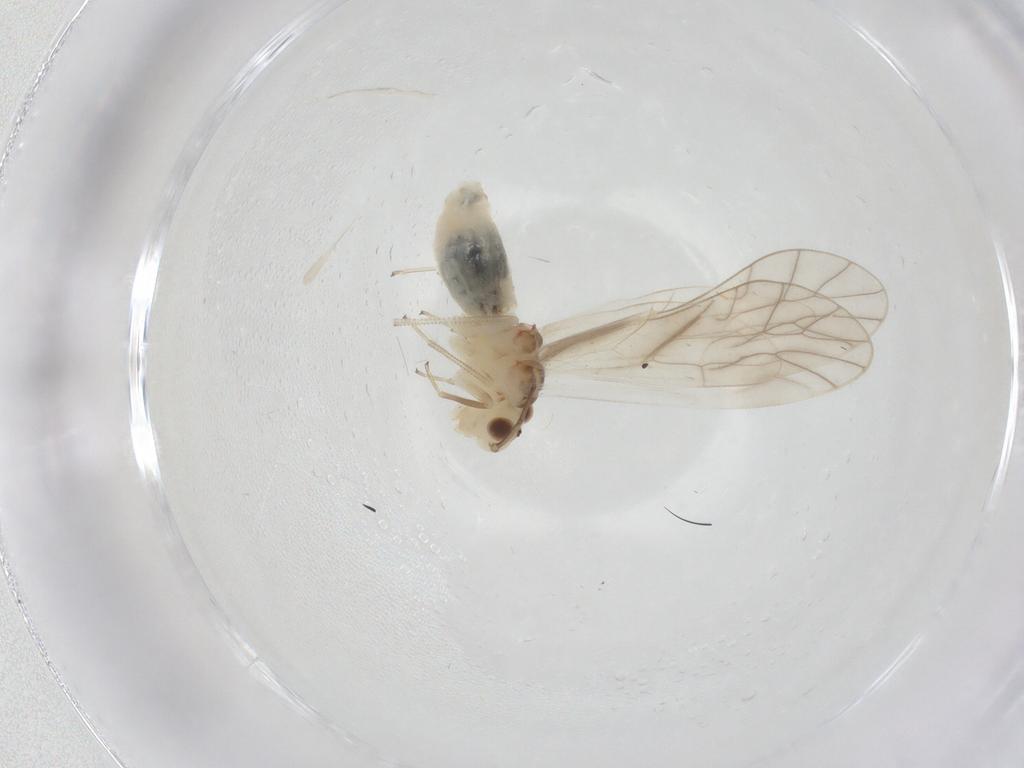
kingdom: Animalia
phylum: Arthropoda
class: Insecta
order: Psocodea
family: Caeciliusidae
